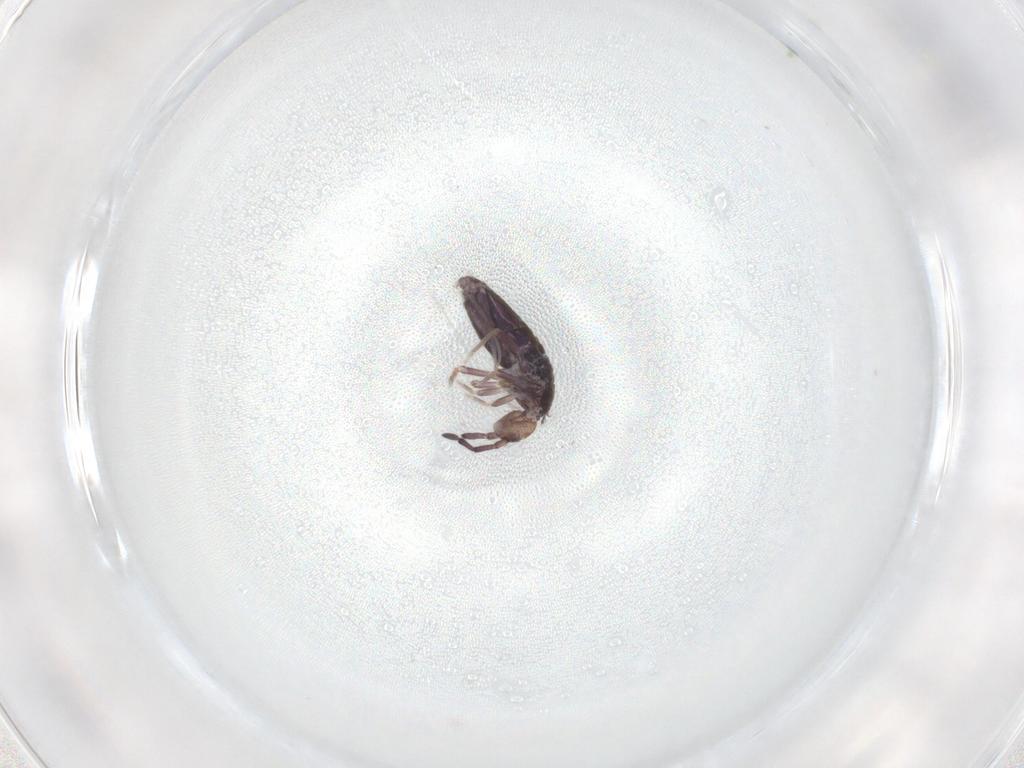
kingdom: Animalia
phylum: Arthropoda
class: Collembola
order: Entomobryomorpha
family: Entomobryidae
